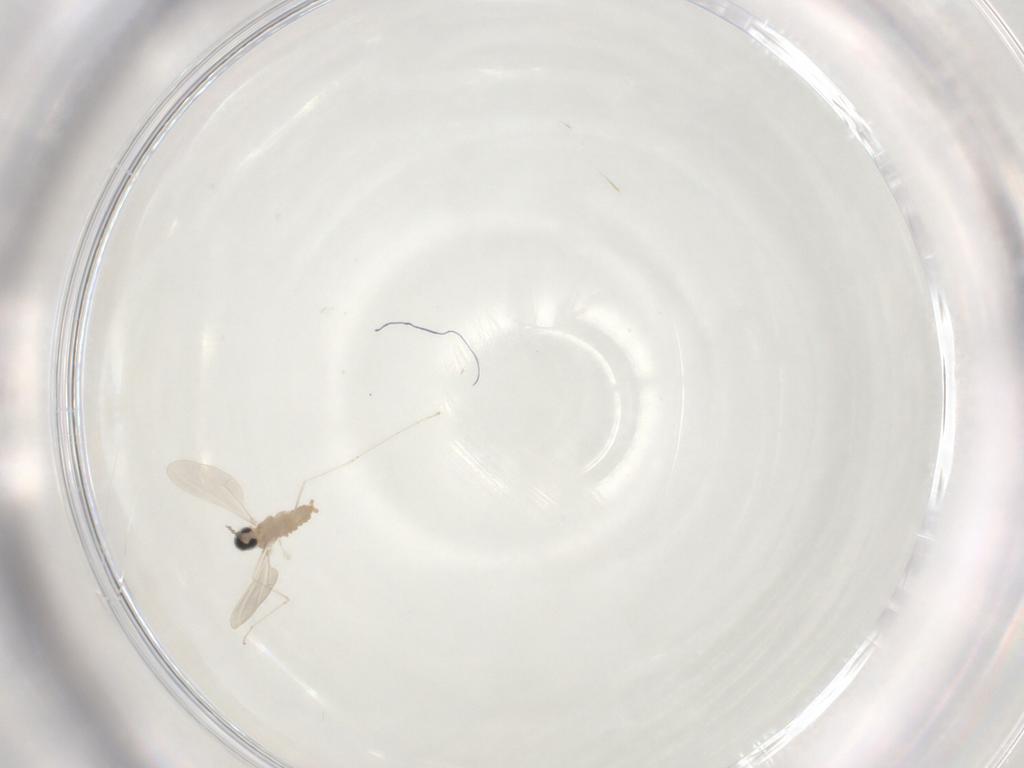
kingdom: Animalia
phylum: Arthropoda
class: Insecta
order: Diptera
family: Cecidomyiidae
